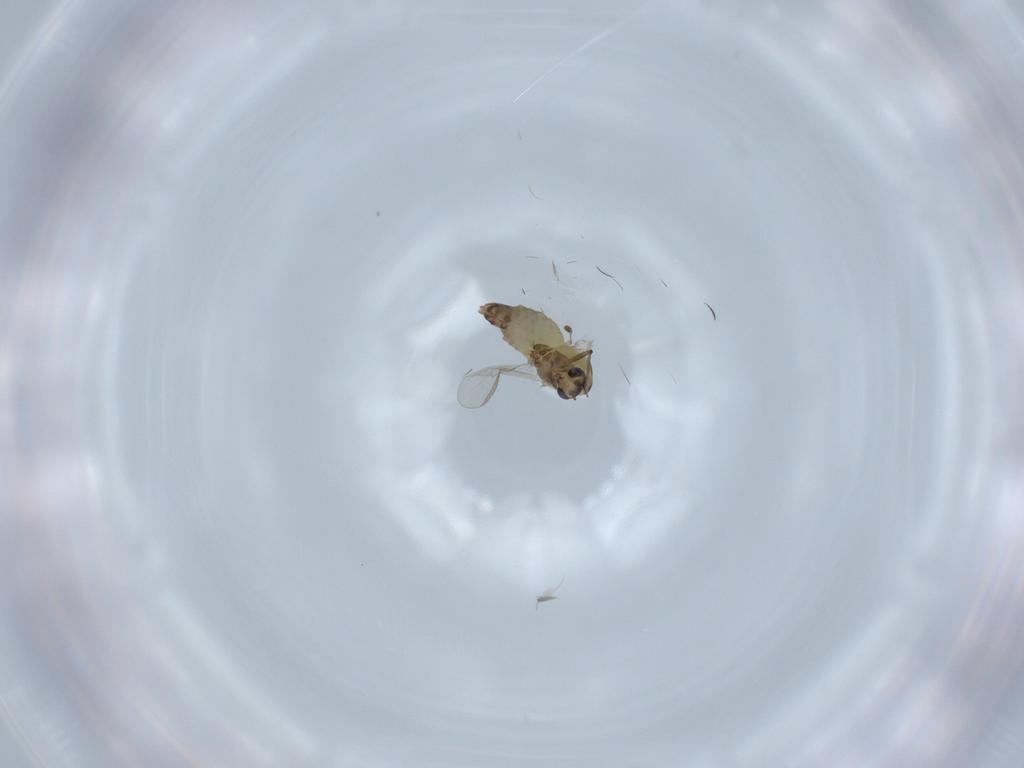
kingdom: Animalia
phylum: Arthropoda
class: Insecta
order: Diptera
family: Chironomidae
